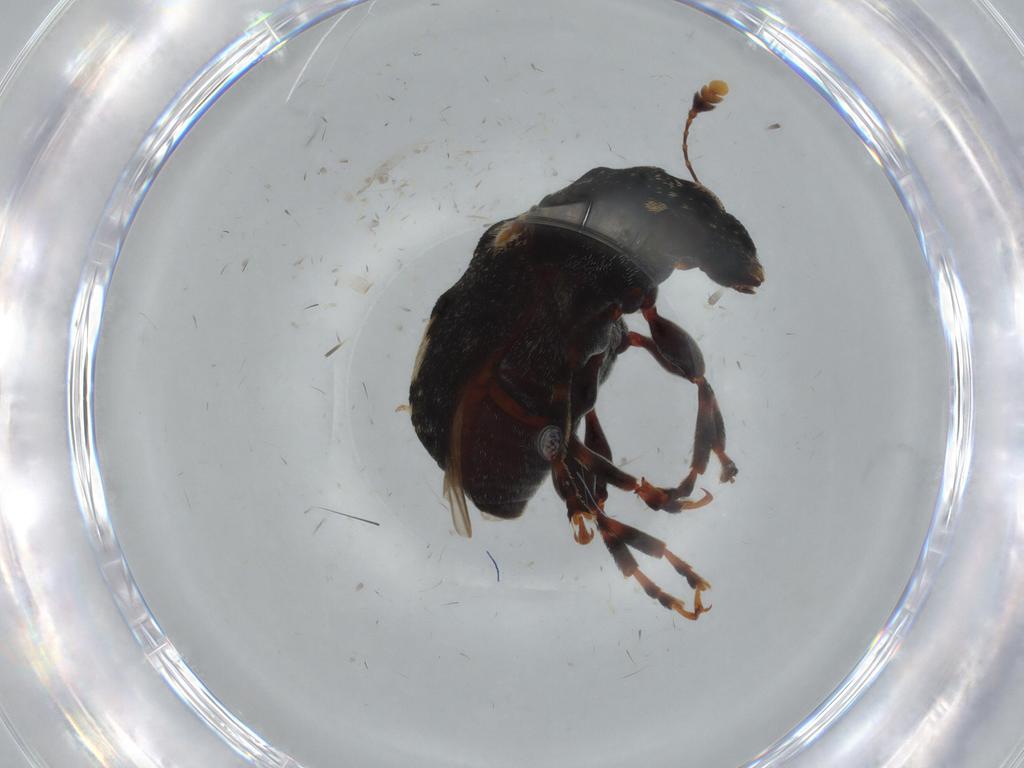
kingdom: Animalia
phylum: Arthropoda
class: Insecta
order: Coleoptera
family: Anthribidae
